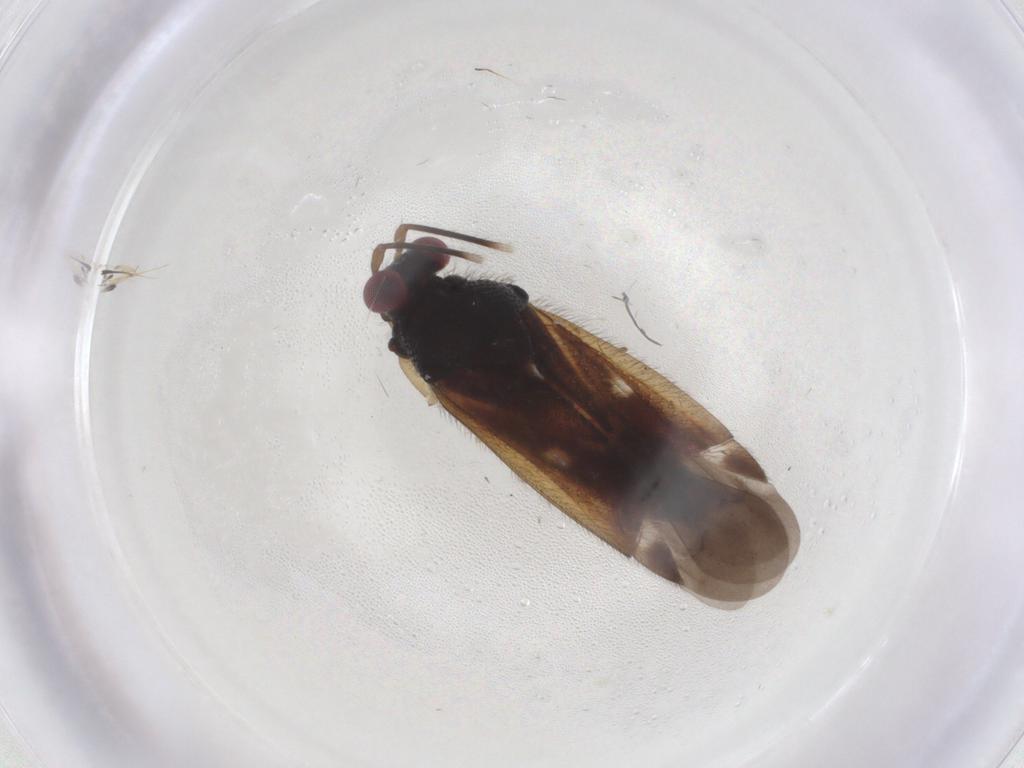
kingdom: Animalia
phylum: Arthropoda
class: Insecta
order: Hemiptera
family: Miridae
